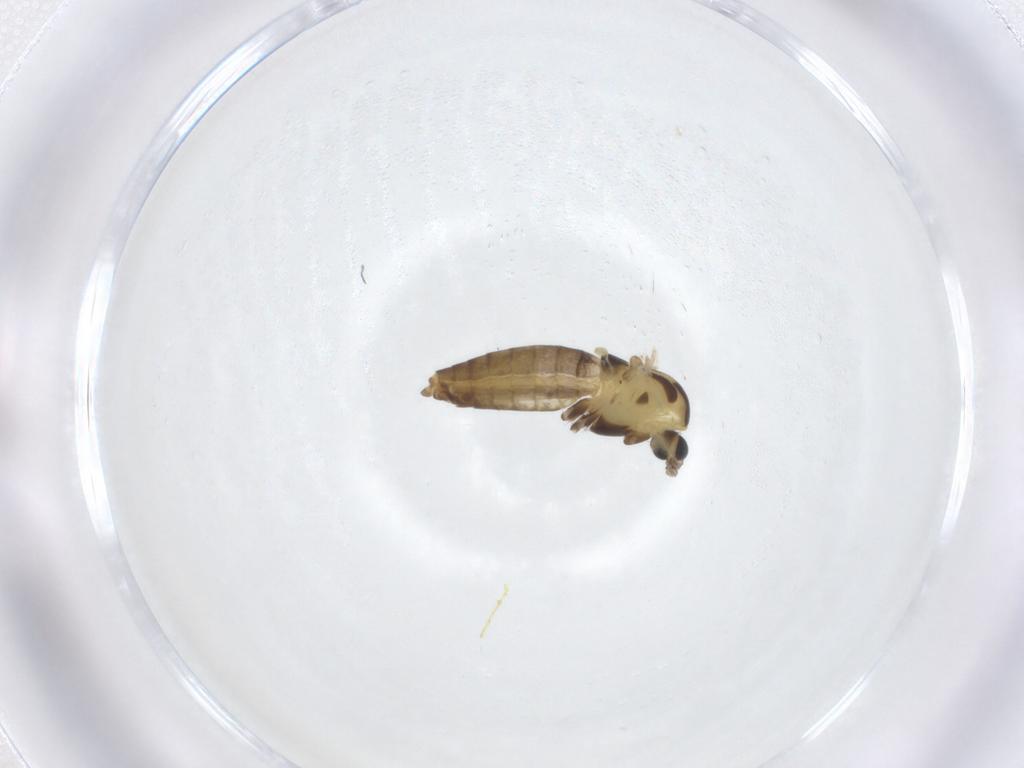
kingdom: Animalia
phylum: Arthropoda
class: Insecta
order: Diptera
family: Chironomidae
